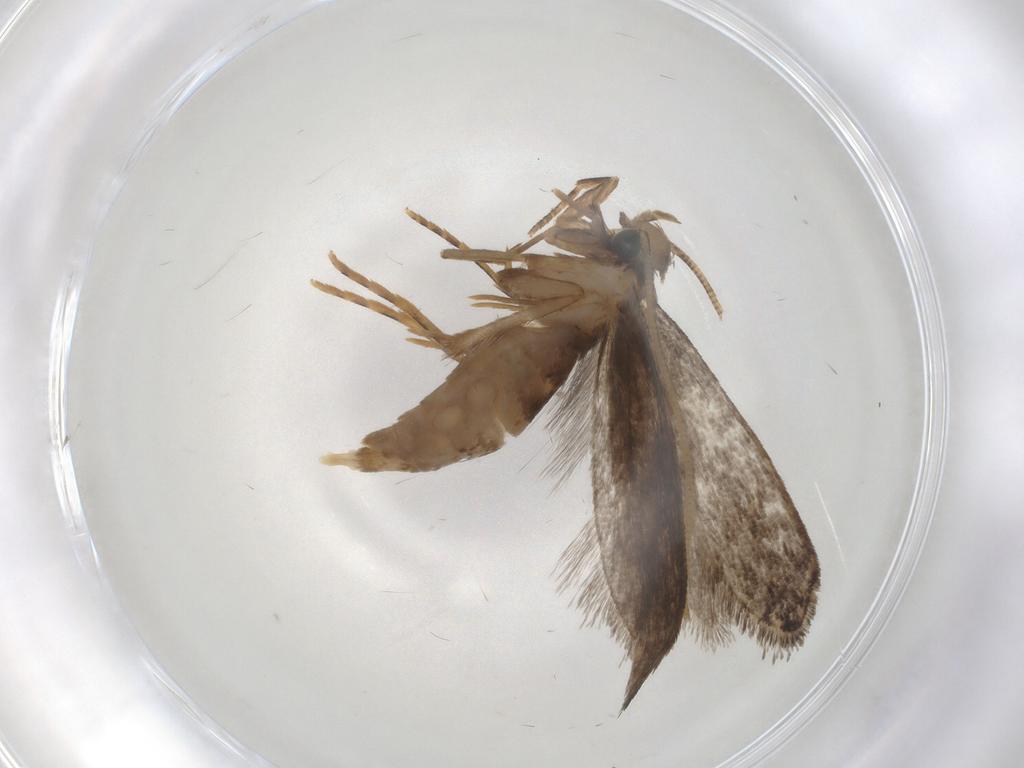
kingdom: Animalia
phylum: Arthropoda
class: Insecta
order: Lepidoptera
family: Tineidae
